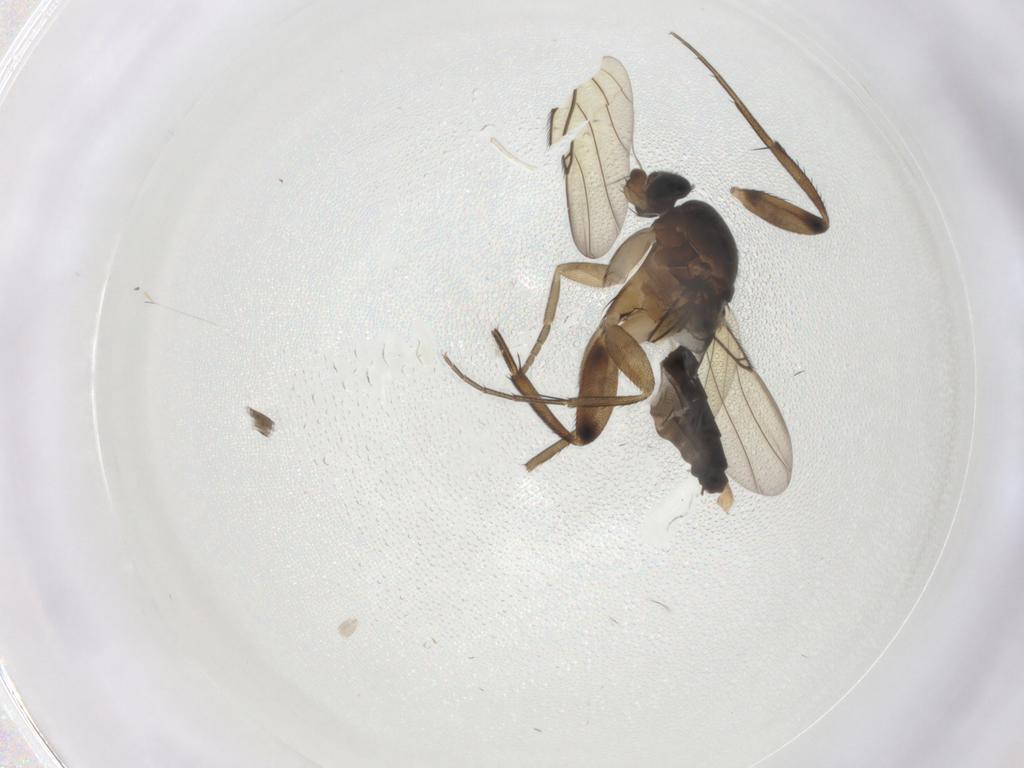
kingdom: Animalia
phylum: Arthropoda
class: Insecta
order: Diptera
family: Phoridae
